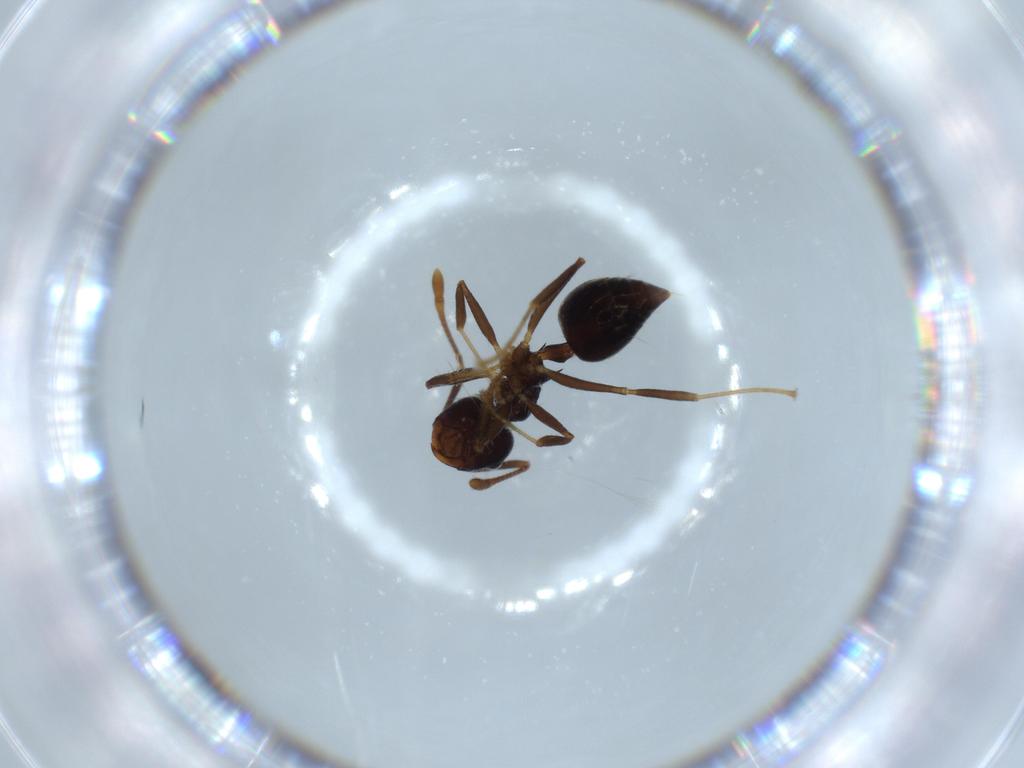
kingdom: Animalia
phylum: Arthropoda
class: Insecta
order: Hymenoptera
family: Formicidae
